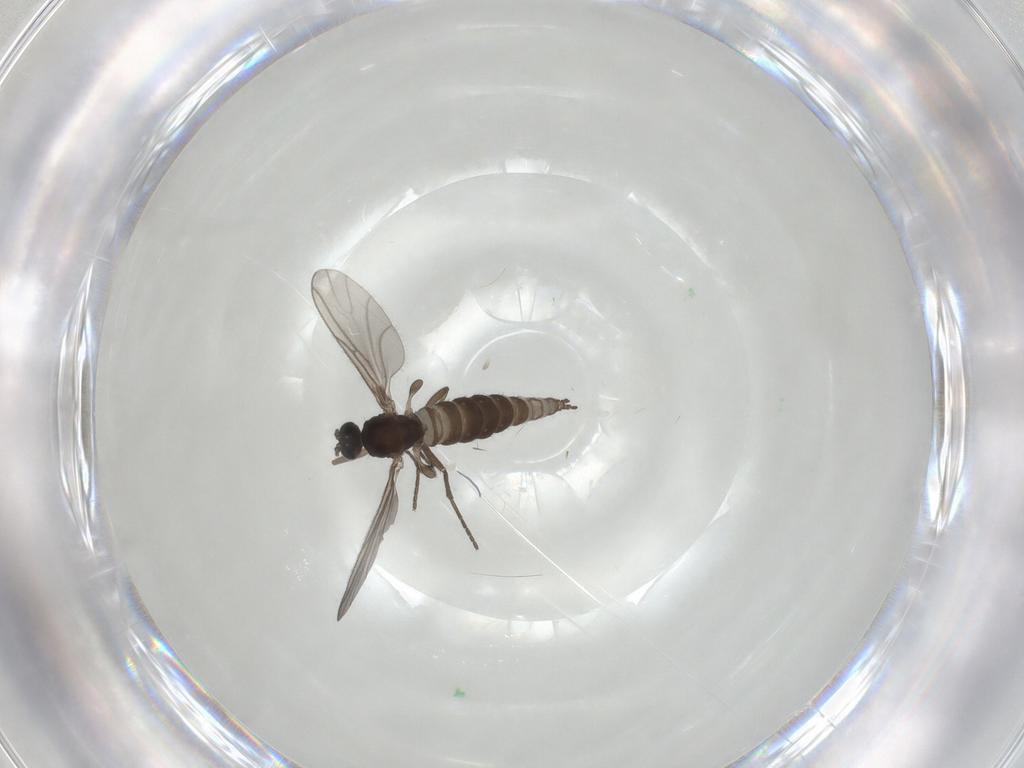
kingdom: Animalia
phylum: Arthropoda
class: Insecta
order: Diptera
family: Sciaridae
